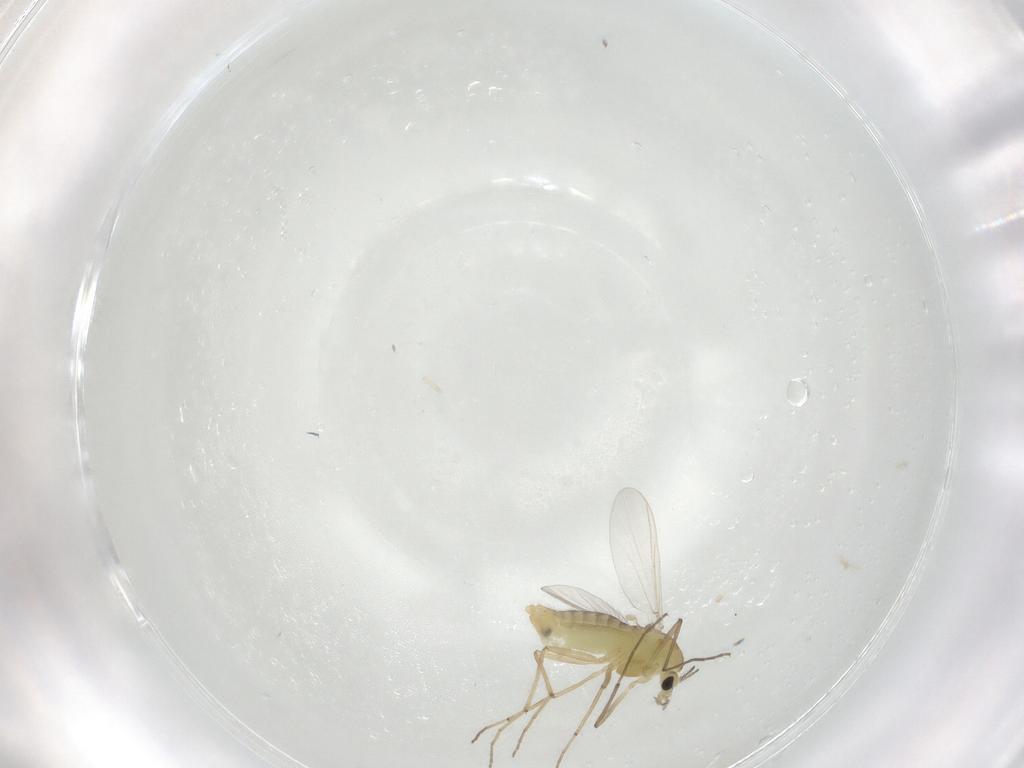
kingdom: Animalia
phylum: Arthropoda
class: Insecta
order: Diptera
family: Chironomidae
